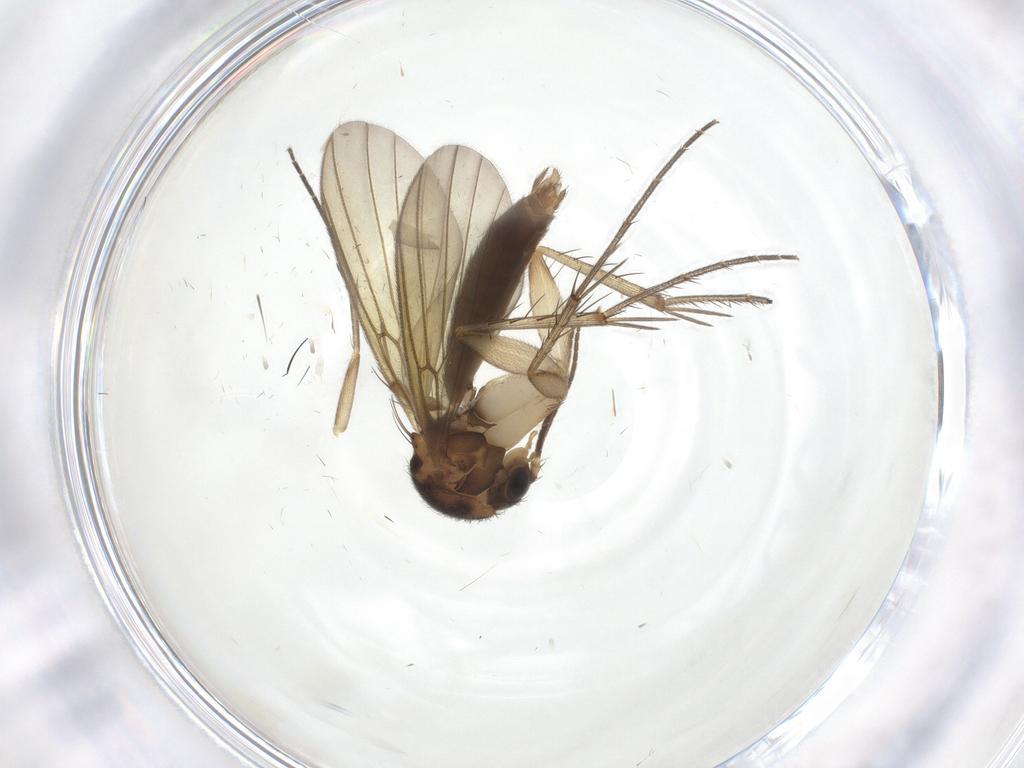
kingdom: Animalia
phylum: Arthropoda
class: Insecta
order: Diptera
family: Mycetophilidae
